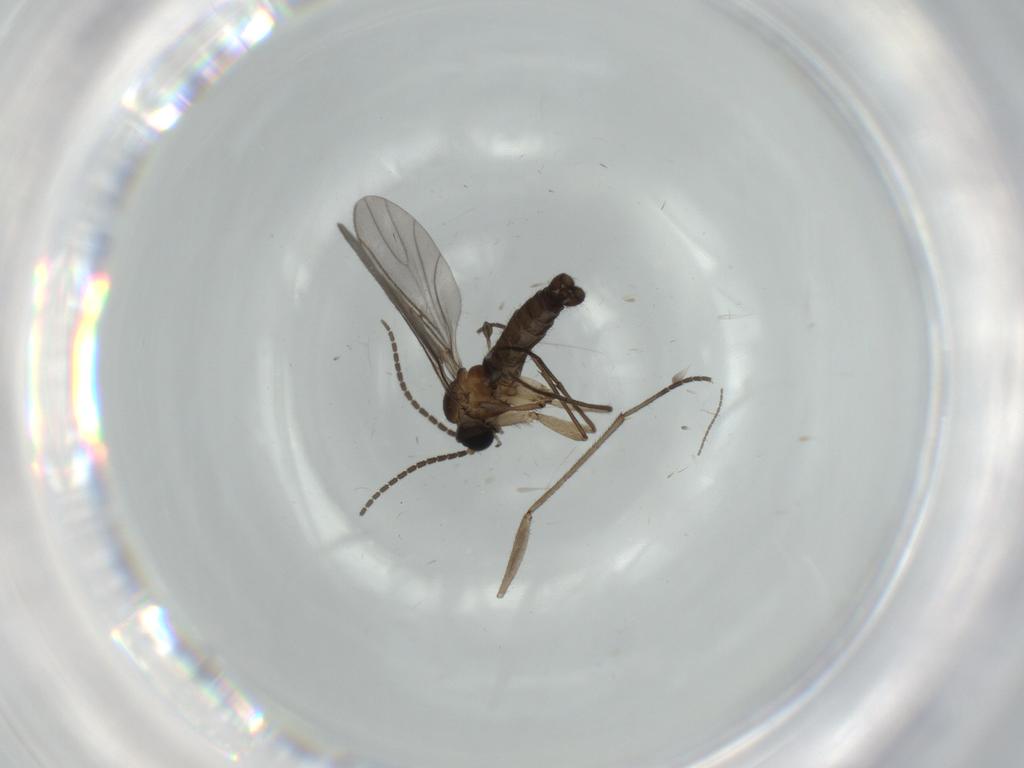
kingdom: Animalia
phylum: Arthropoda
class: Insecta
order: Diptera
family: Cecidomyiidae
